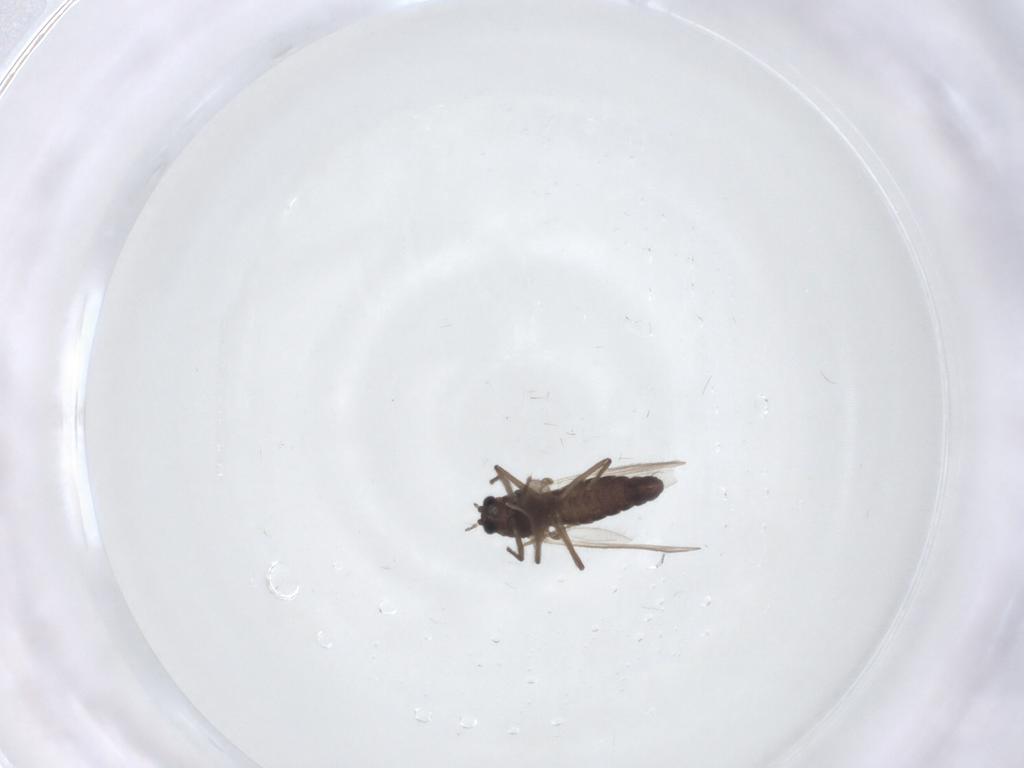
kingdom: Animalia
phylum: Arthropoda
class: Insecta
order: Diptera
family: Chironomidae
